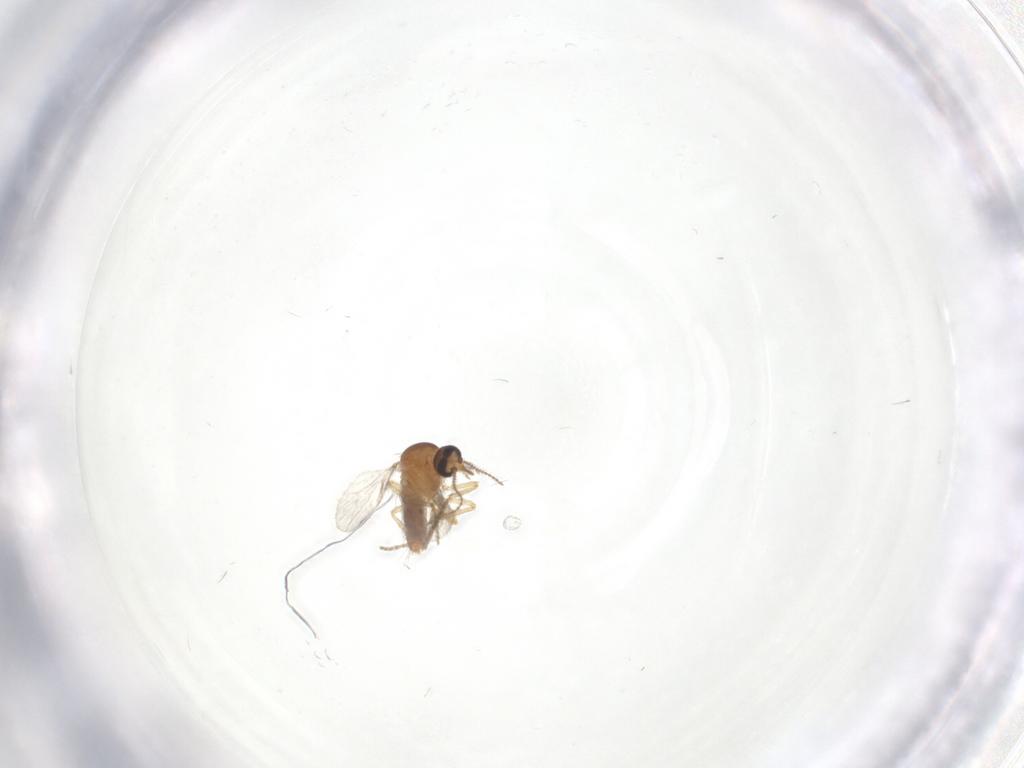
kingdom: Animalia
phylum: Arthropoda
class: Insecta
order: Diptera
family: Ceratopogonidae
